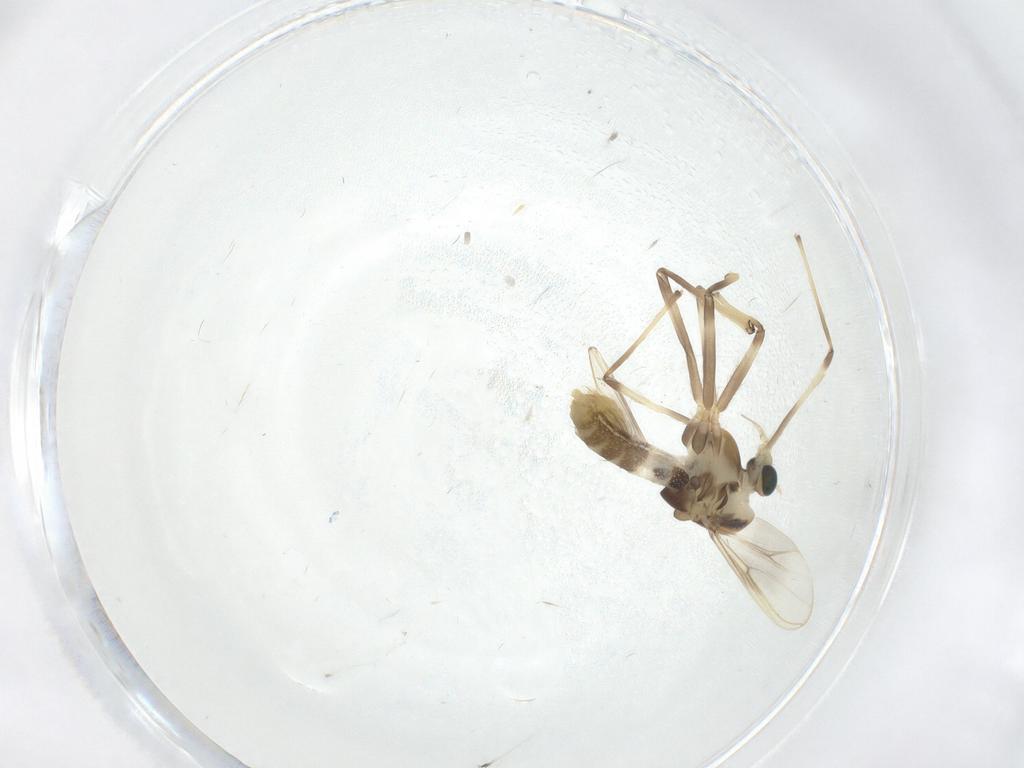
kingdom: Animalia
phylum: Arthropoda
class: Insecta
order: Diptera
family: Chironomidae
